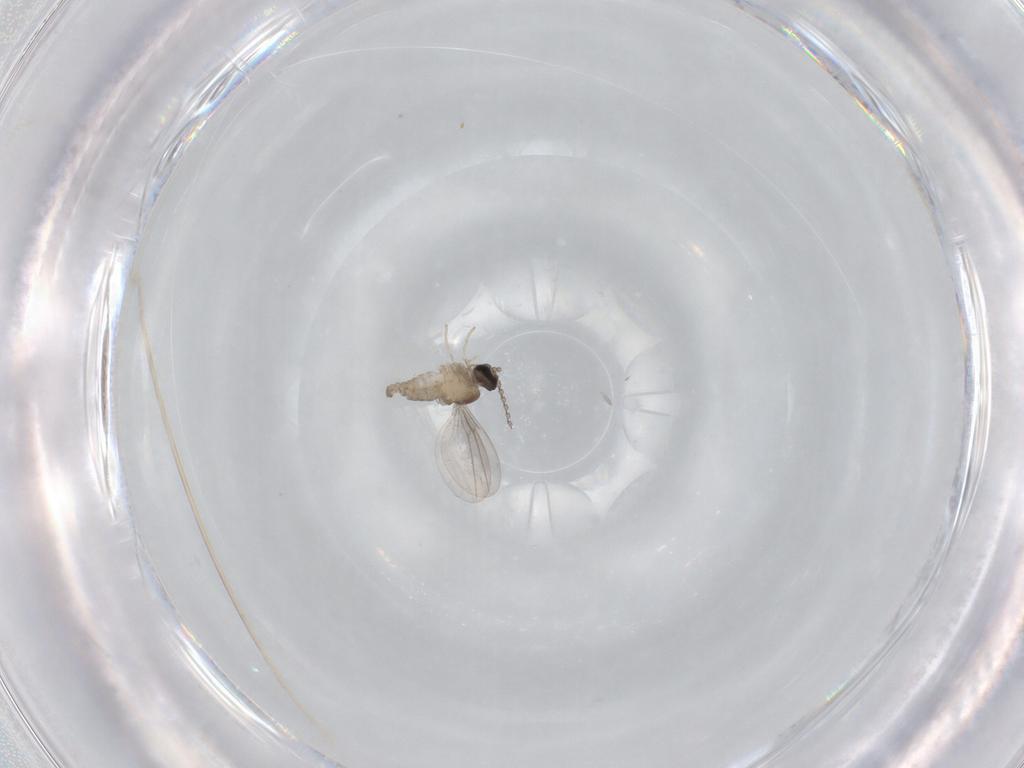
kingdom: Animalia
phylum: Arthropoda
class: Insecta
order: Diptera
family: Cecidomyiidae
